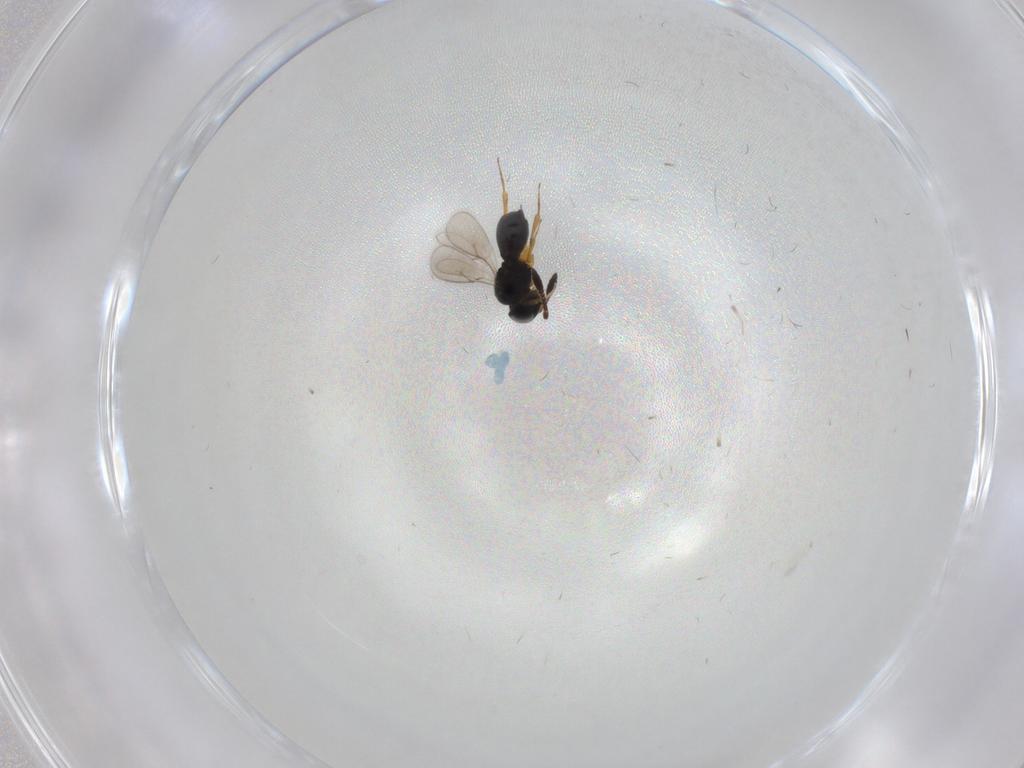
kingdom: Animalia
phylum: Arthropoda
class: Insecta
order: Hymenoptera
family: Scelionidae
